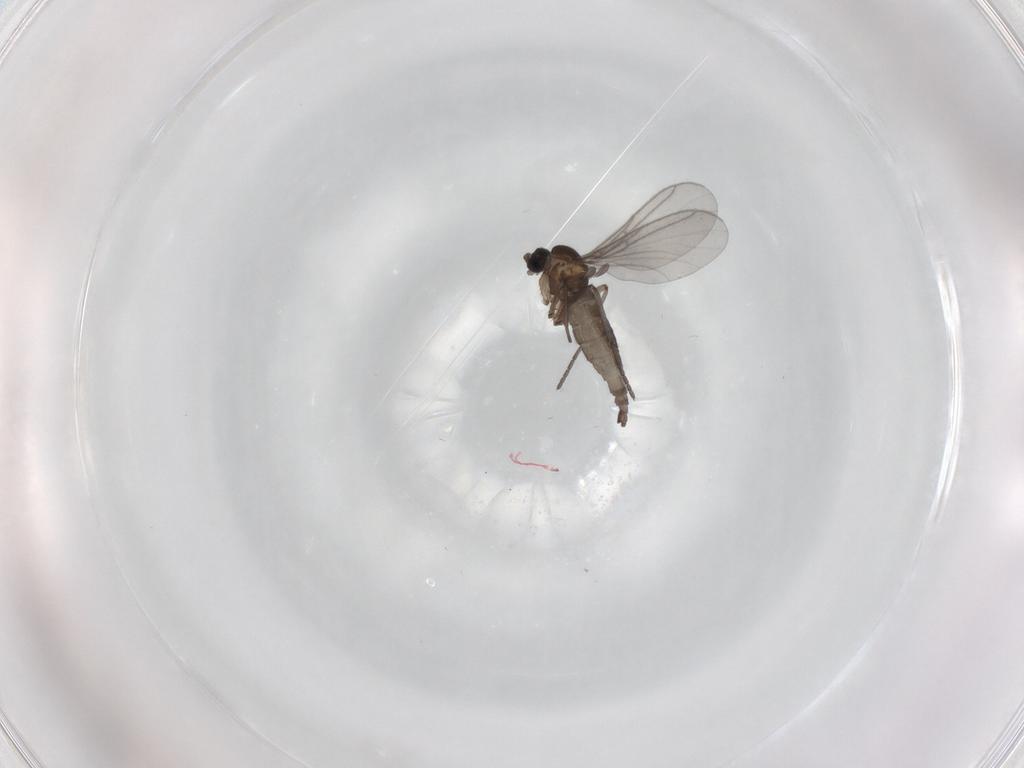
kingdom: Animalia
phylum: Arthropoda
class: Insecta
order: Diptera
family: Sciaridae
